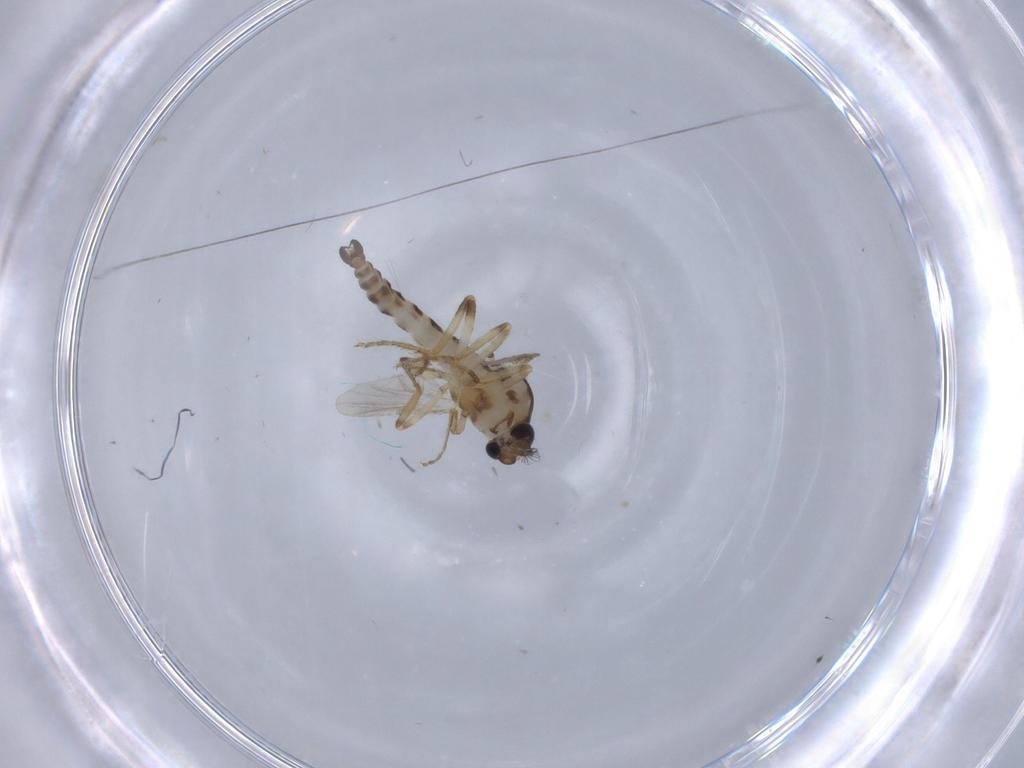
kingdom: Animalia
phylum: Arthropoda
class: Insecta
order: Diptera
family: Ceratopogonidae
